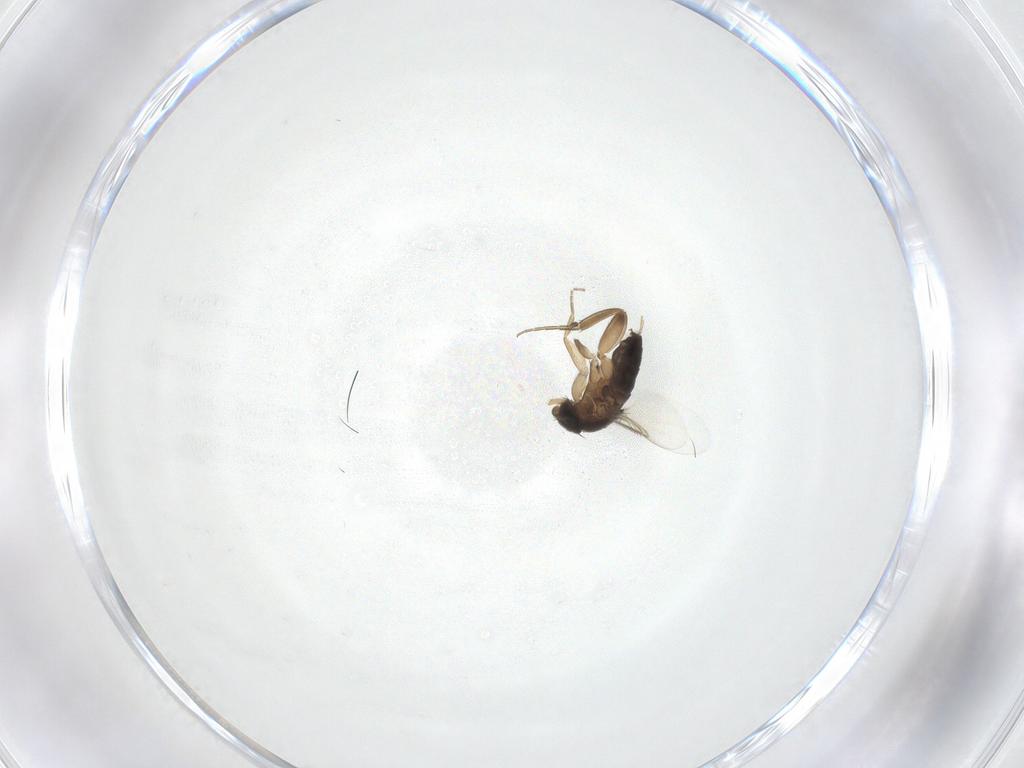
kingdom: Animalia
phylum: Arthropoda
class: Insecta
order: Diptera
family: Phoridae
